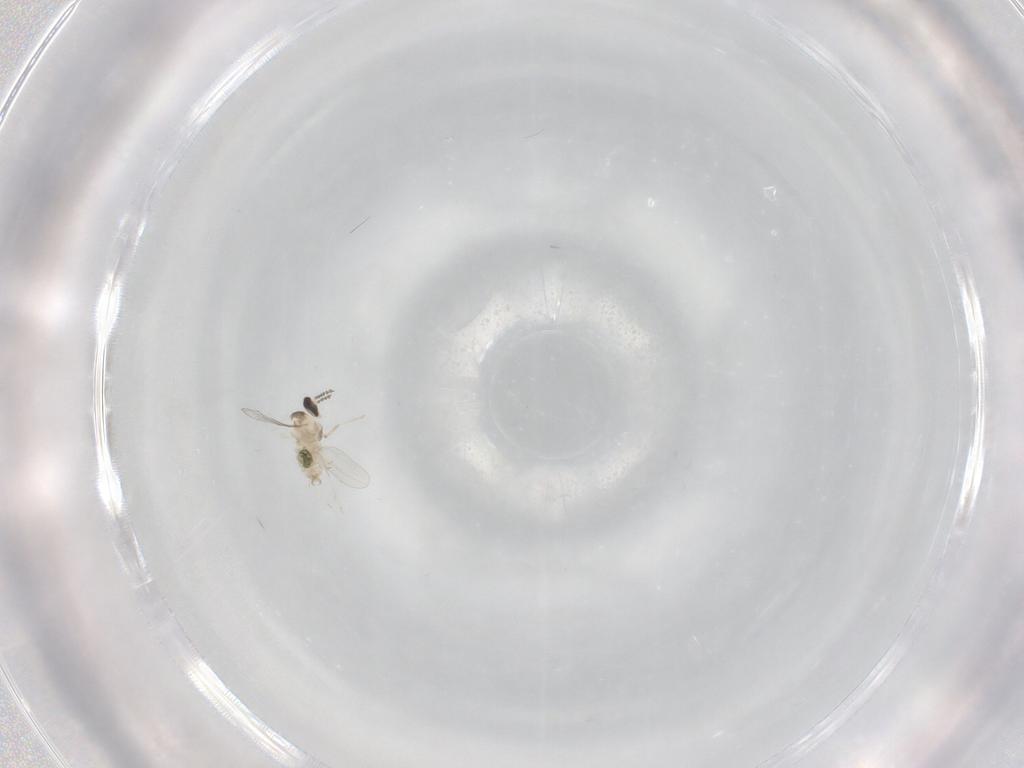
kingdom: Animalia
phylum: Arthropoda
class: Insecta
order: Diptera
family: Cecidomyiidae
